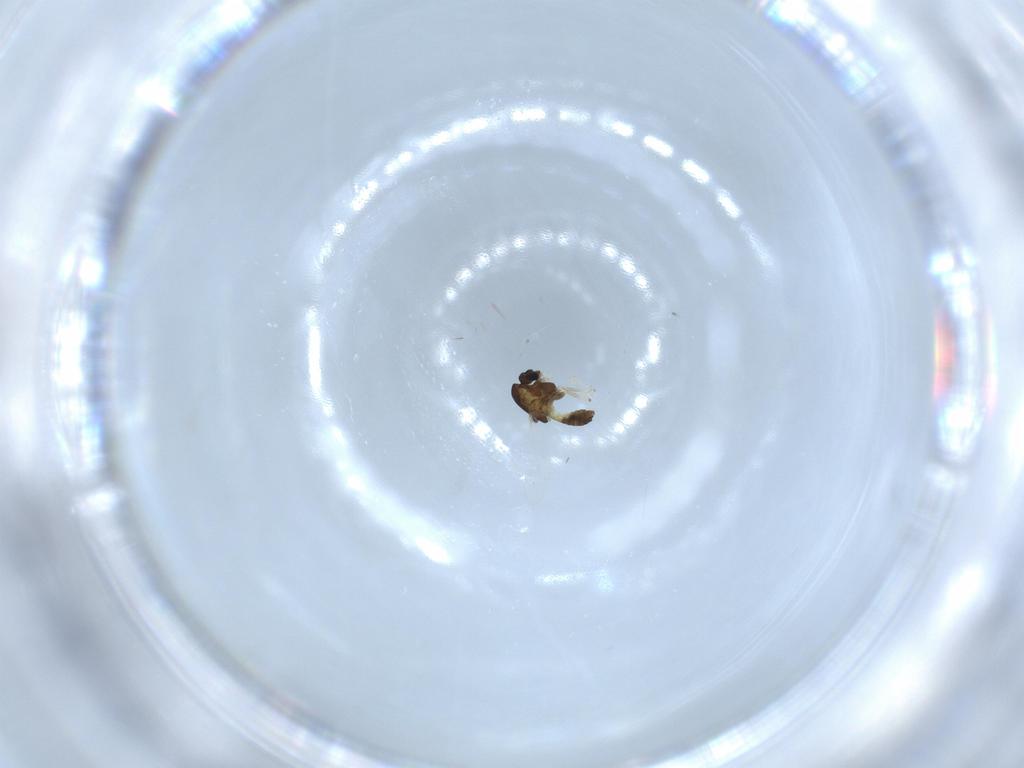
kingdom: Animalia
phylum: Arthropoda
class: Insecta
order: Diptera
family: Chironomidae
